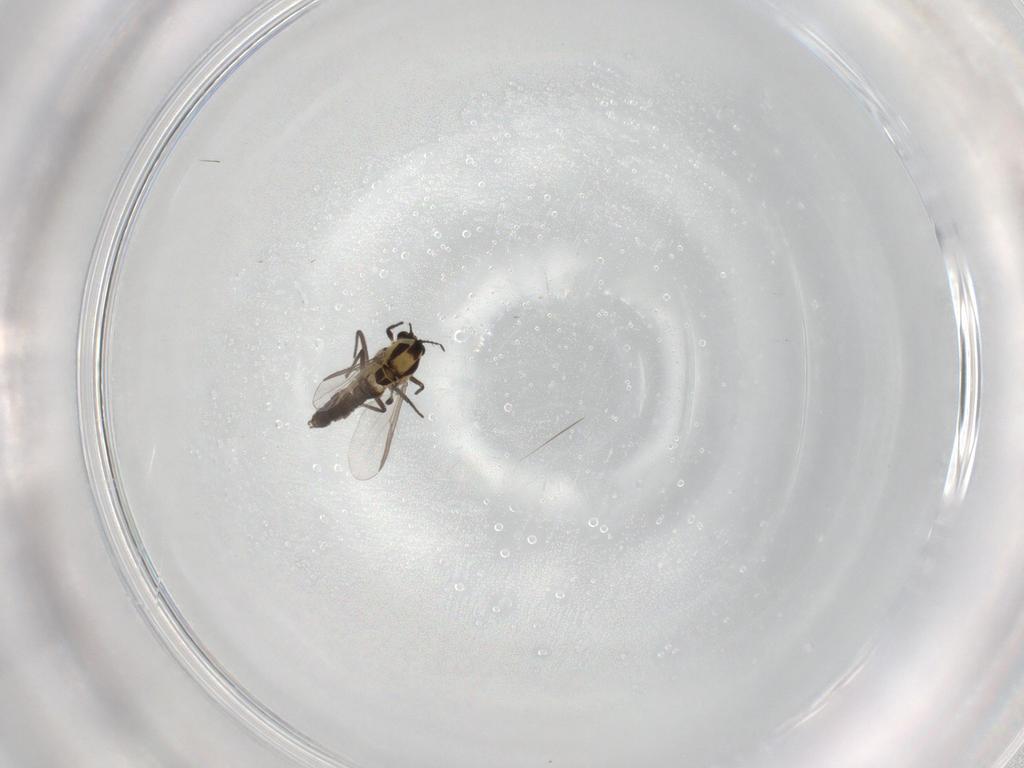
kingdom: Animalia
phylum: Arthropoda
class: Insecta
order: Diptera
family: Chironomidae
